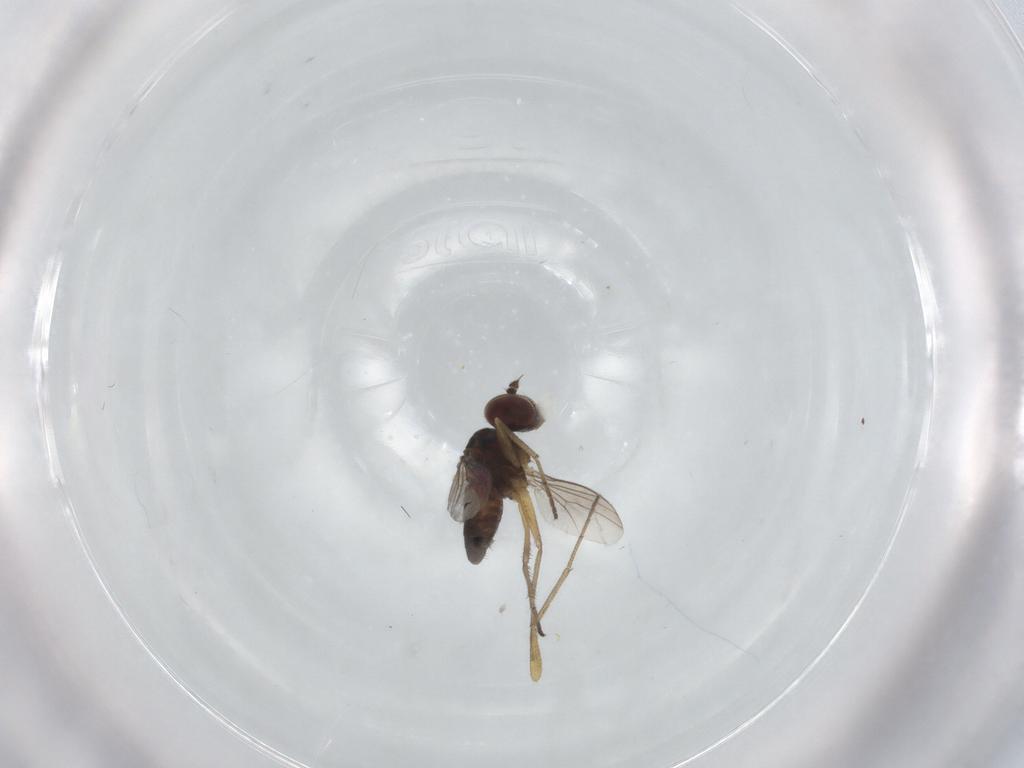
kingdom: Animalia
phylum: Arthropoda
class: Insecta
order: Diptera
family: Dolichopodidae
